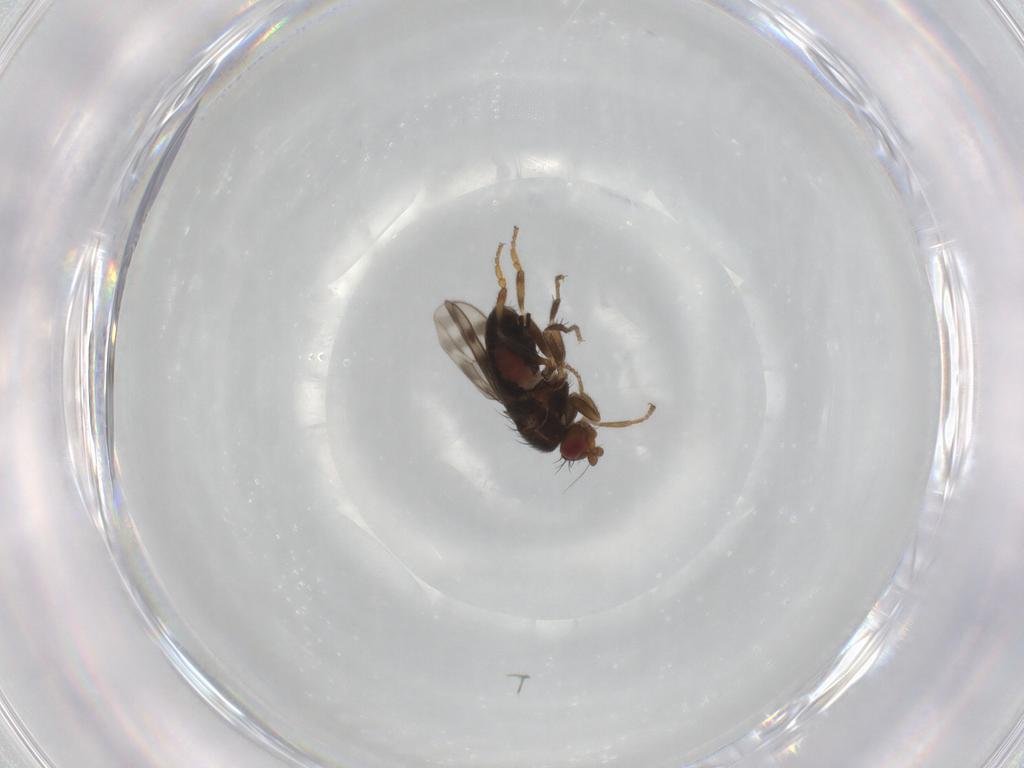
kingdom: Animalia
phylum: Arthropoda
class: Insecta
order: Diptera
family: Sphaeroceridae
